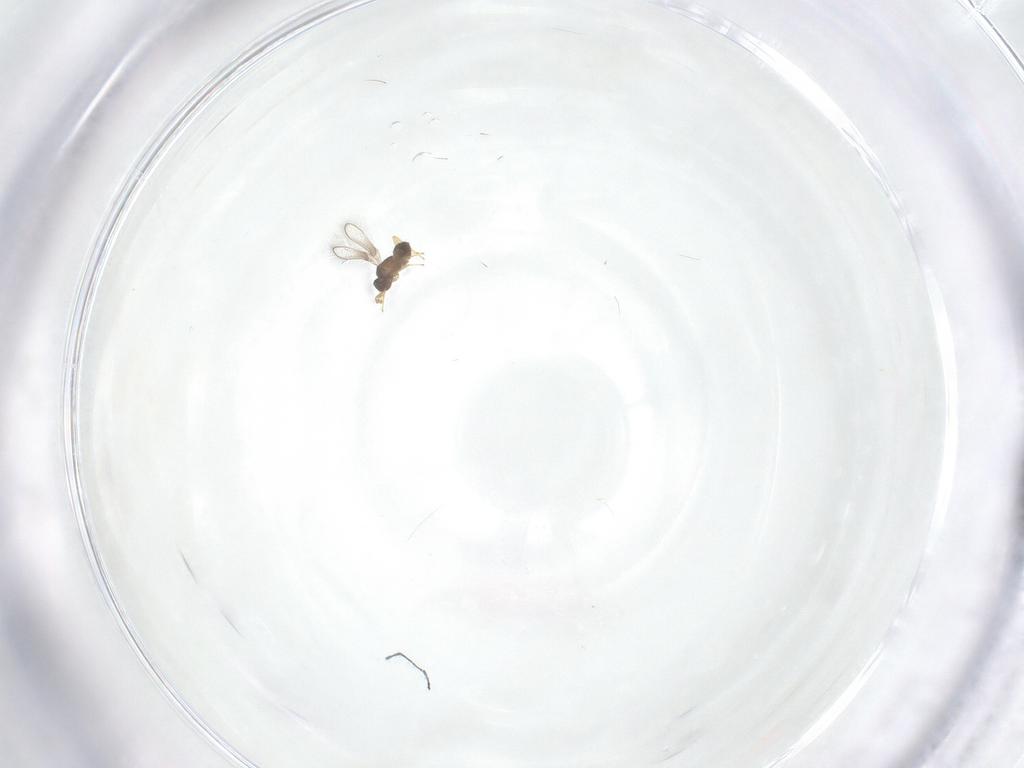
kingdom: Animalia
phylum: Arthropoda
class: Insecta
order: Hymenoptera
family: Mymaridae
